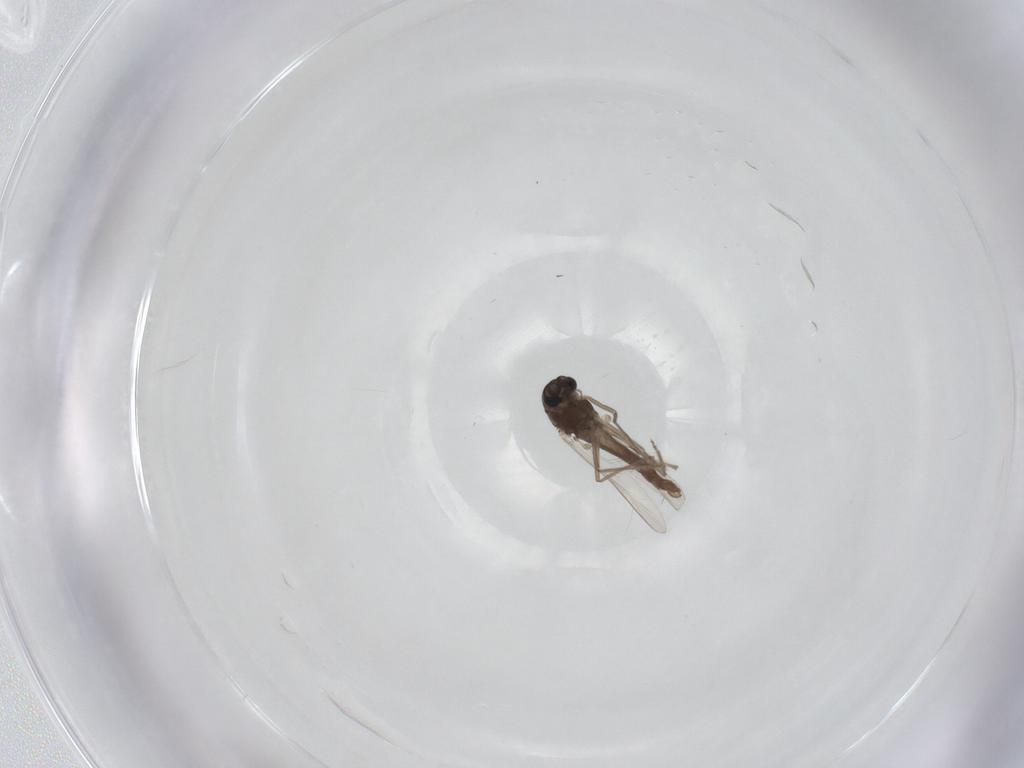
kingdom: Animalia
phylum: Arthropoda
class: Insecta
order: Diptera
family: Chironomidae
